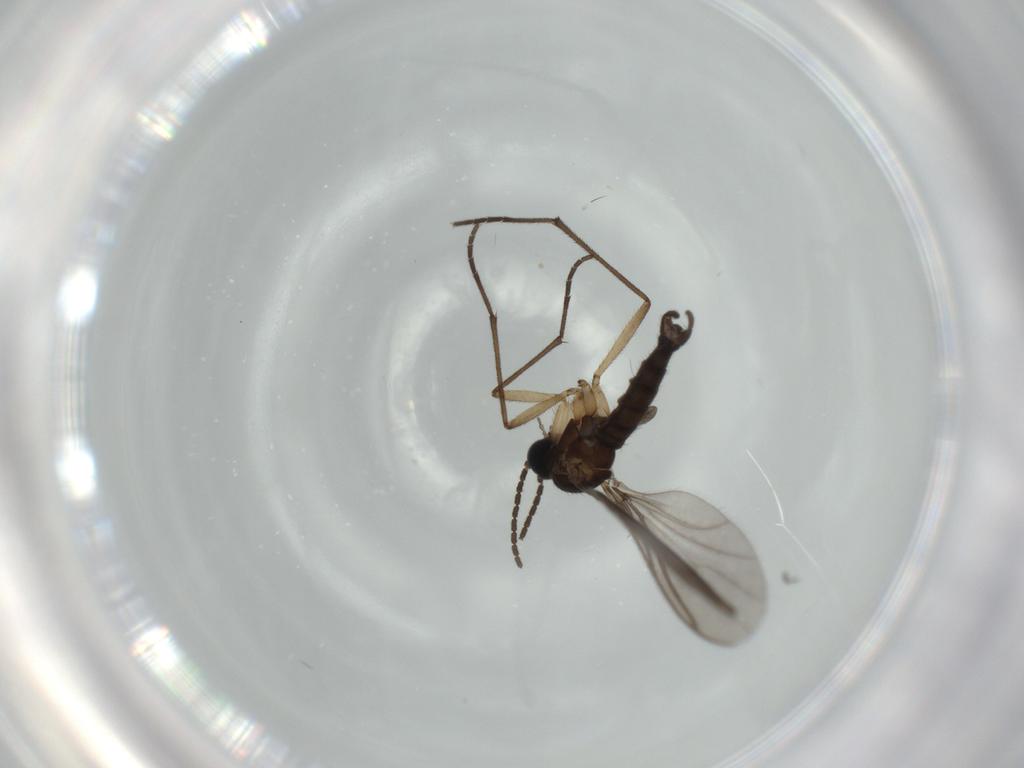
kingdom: Animalia
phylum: Arthropoda
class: Insecta
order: Diptera
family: Sciaridae
